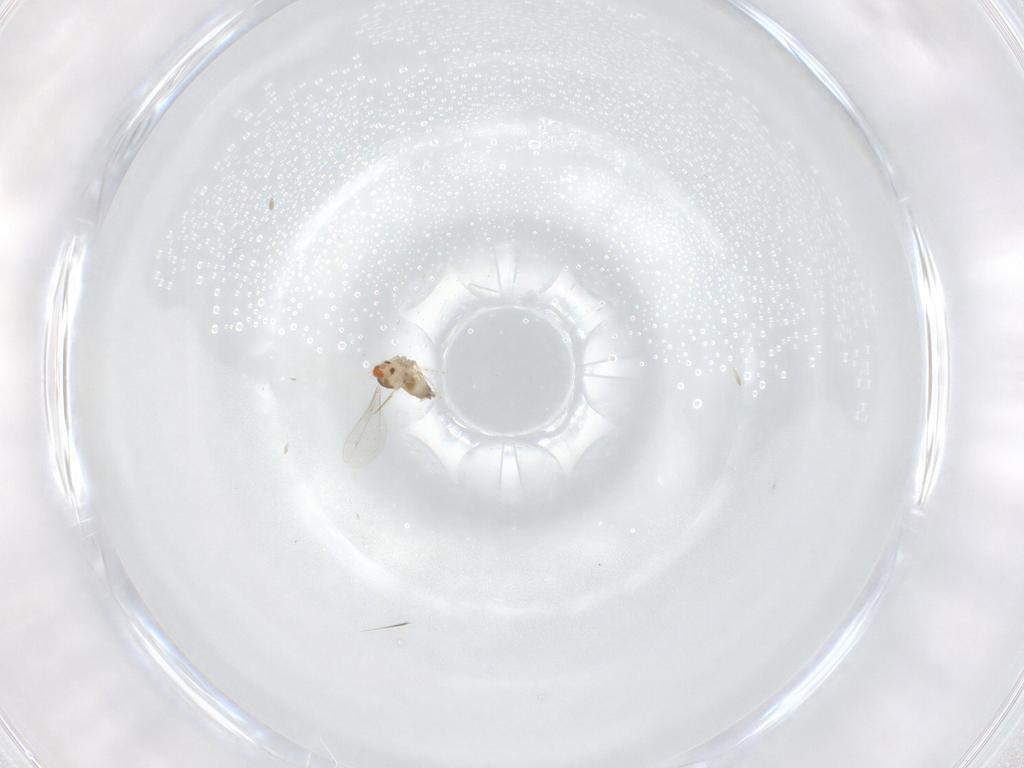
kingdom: Animalia
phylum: Arthropoda
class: Insecta
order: Diptera
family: Cecidomyiidae
